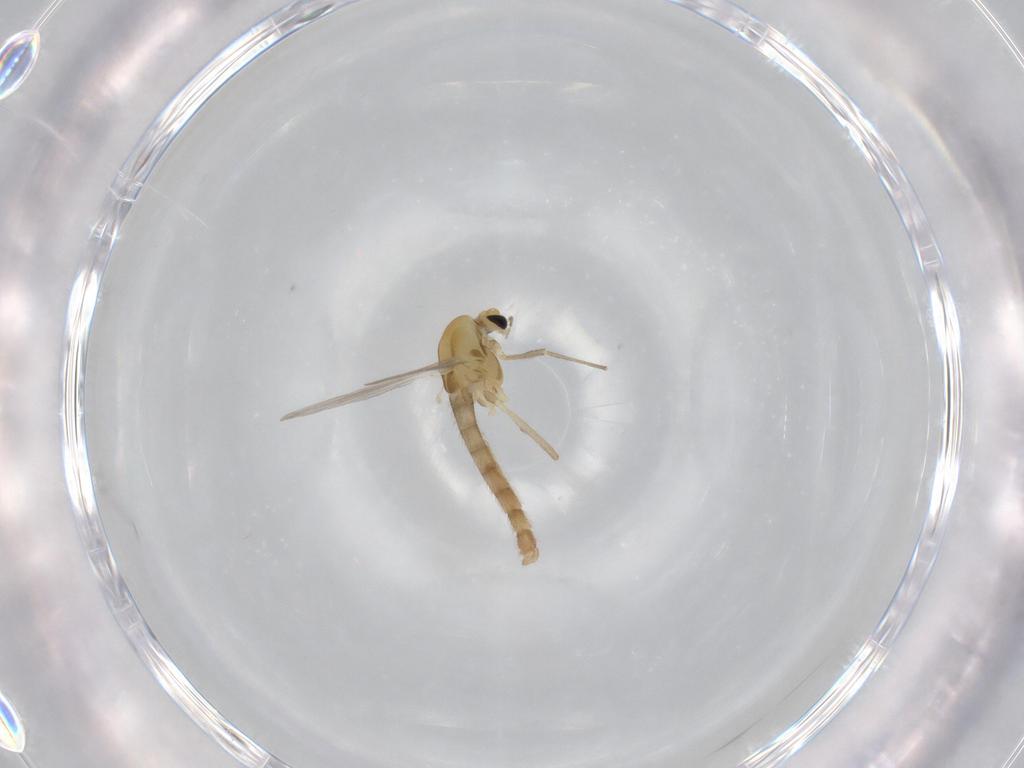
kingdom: Animalia
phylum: Arthropoda
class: Insecta
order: Diptera
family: Chironomidae
